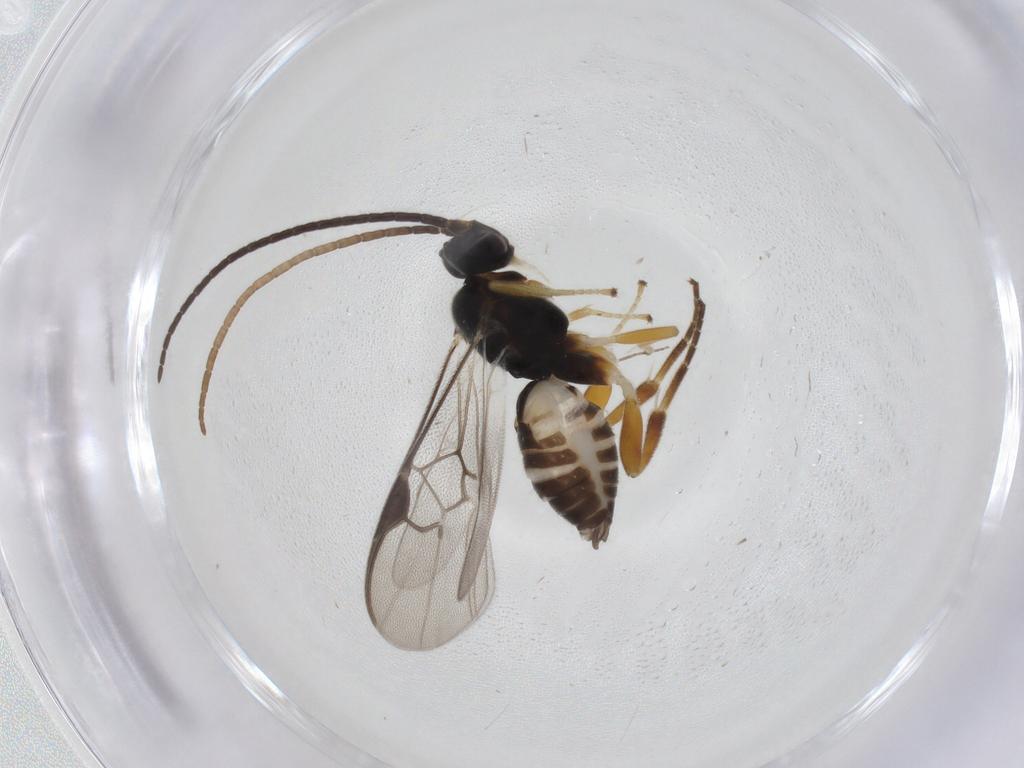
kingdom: Animalia
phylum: Arthropoda
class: Insecta
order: Hymenoptera
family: Braconidae
